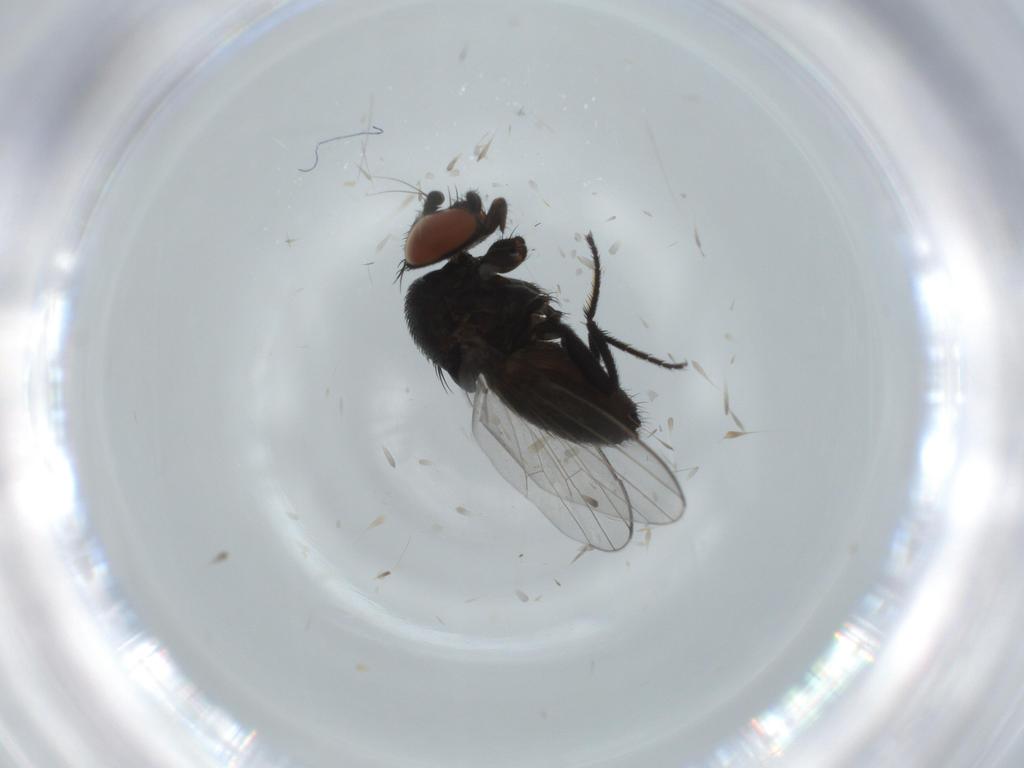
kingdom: Animalia
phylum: Arthropoda
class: Insecta
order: Diptera
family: Milichiidae
